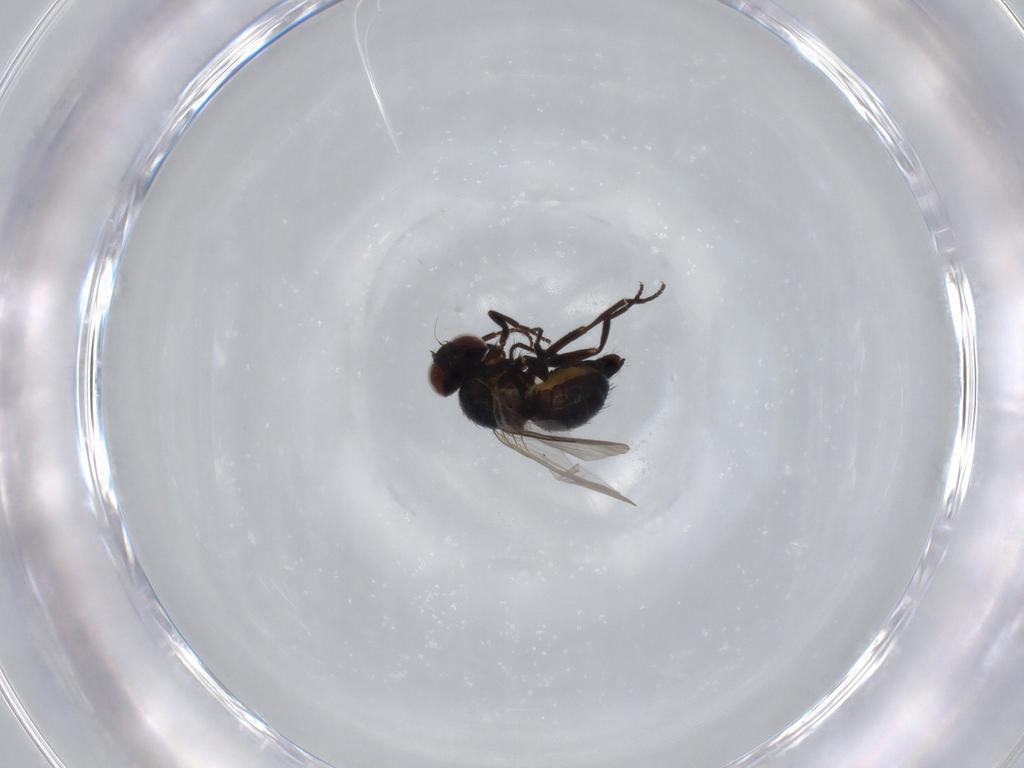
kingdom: Animalia
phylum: Arthropoda
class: Insecta
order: Diptera
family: Agromyzidae
